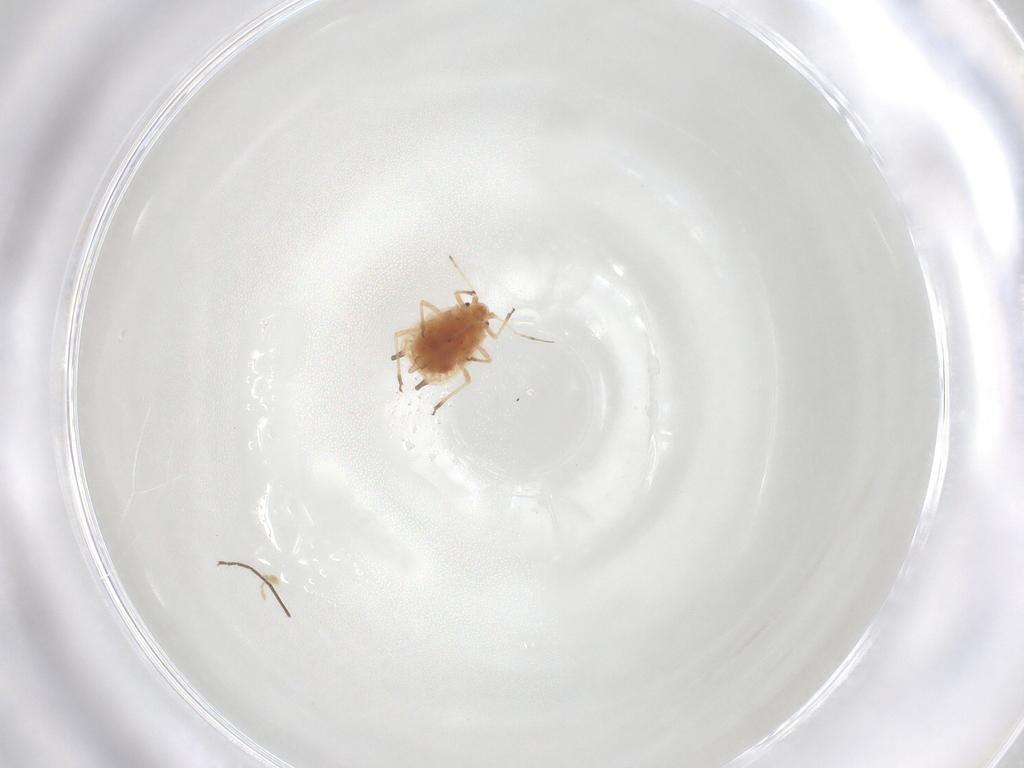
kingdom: Animalia
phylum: Arthropoda
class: Insecta
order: Hemiptera
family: Aphididae
